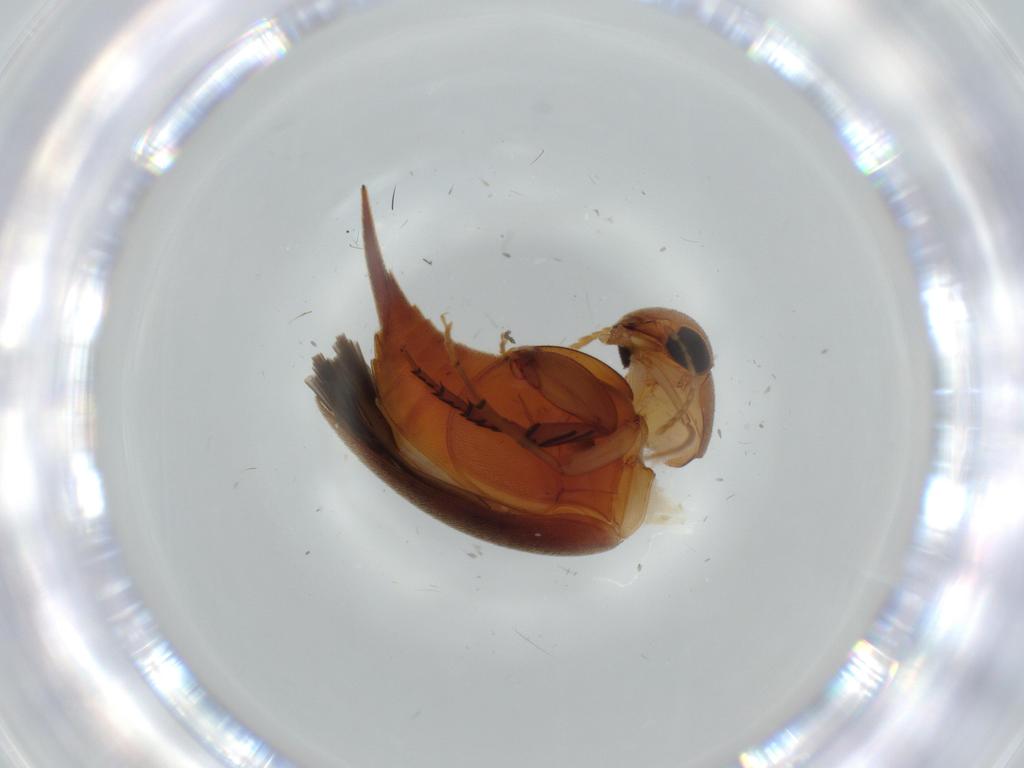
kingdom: Animalia
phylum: Arthropoda
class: Insecta
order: Coleoptera
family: Mordellidae
